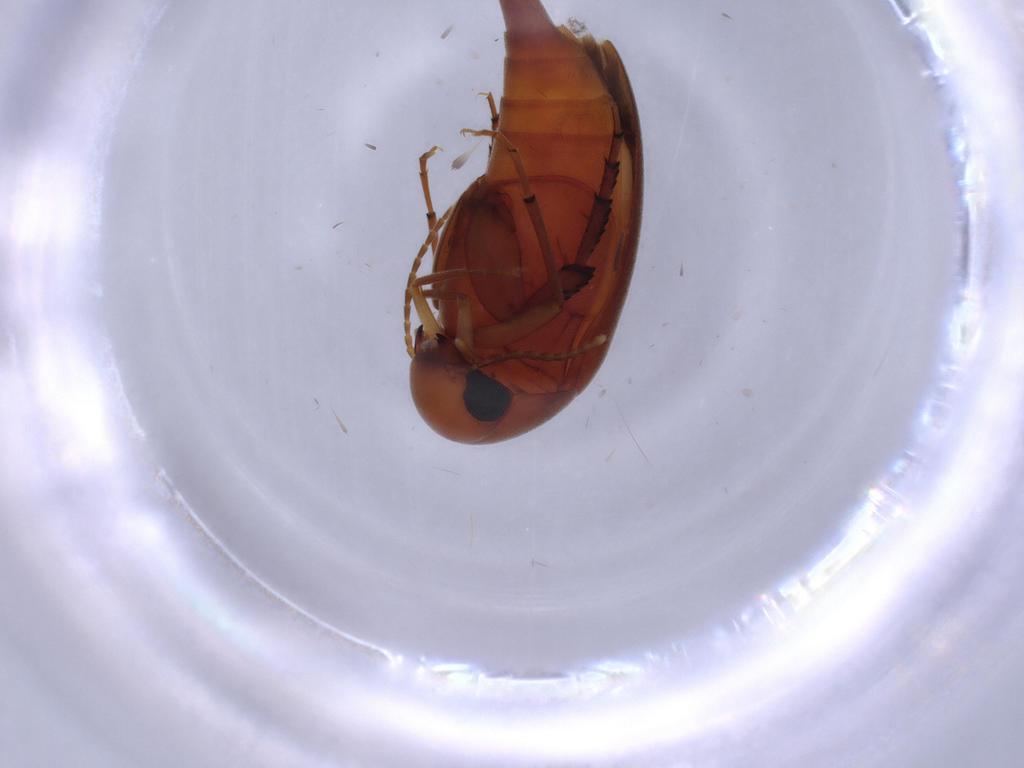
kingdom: Animalia
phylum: Arthropoda
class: Insecta
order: Coleoptera
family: Mordellidae
